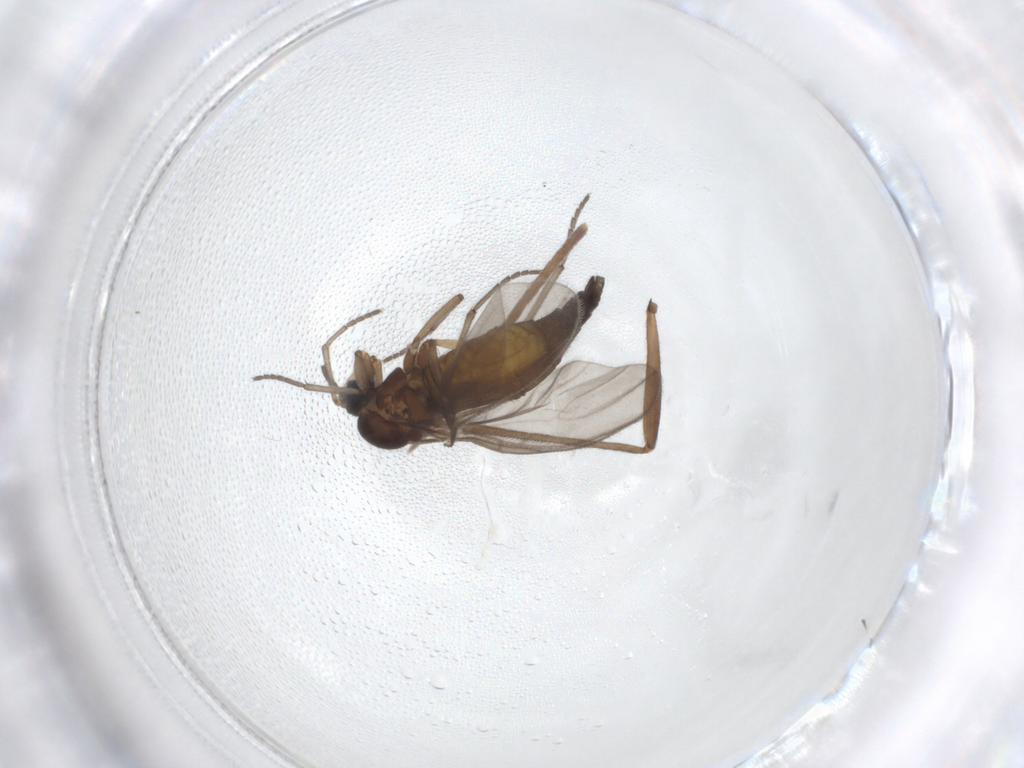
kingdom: Animalia
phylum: Arthropoda
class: Insecta
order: Diptera
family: Sciaridae
